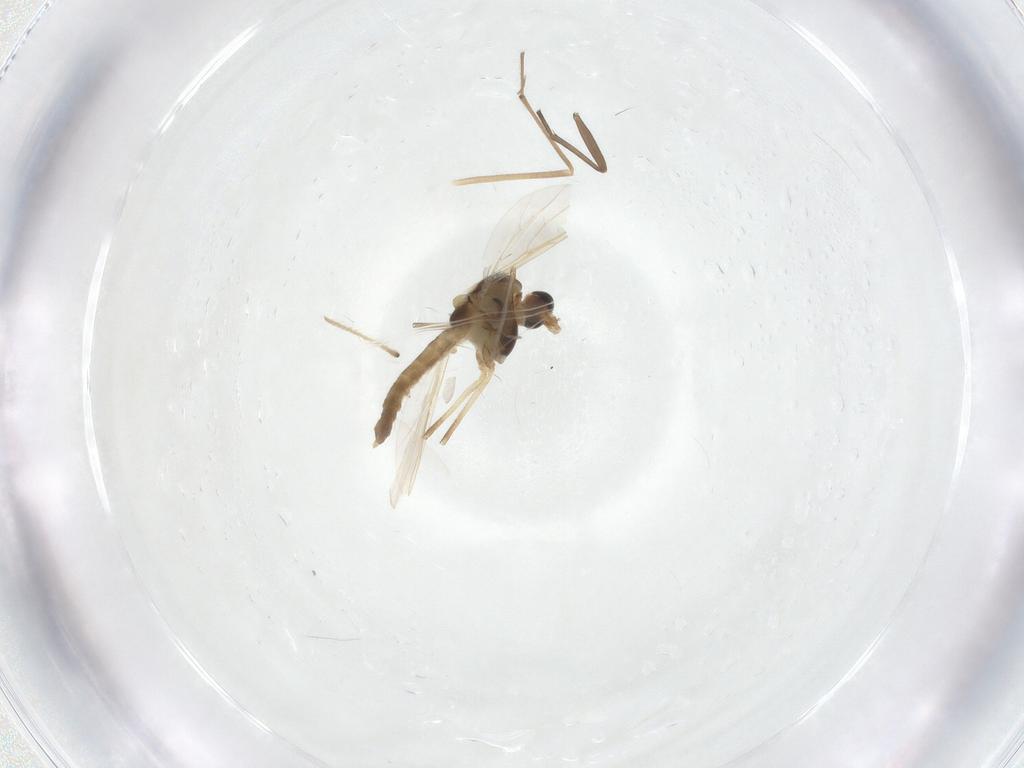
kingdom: Animalia
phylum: Arthropoda
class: Insecta
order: Diptera
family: Chironomidae
